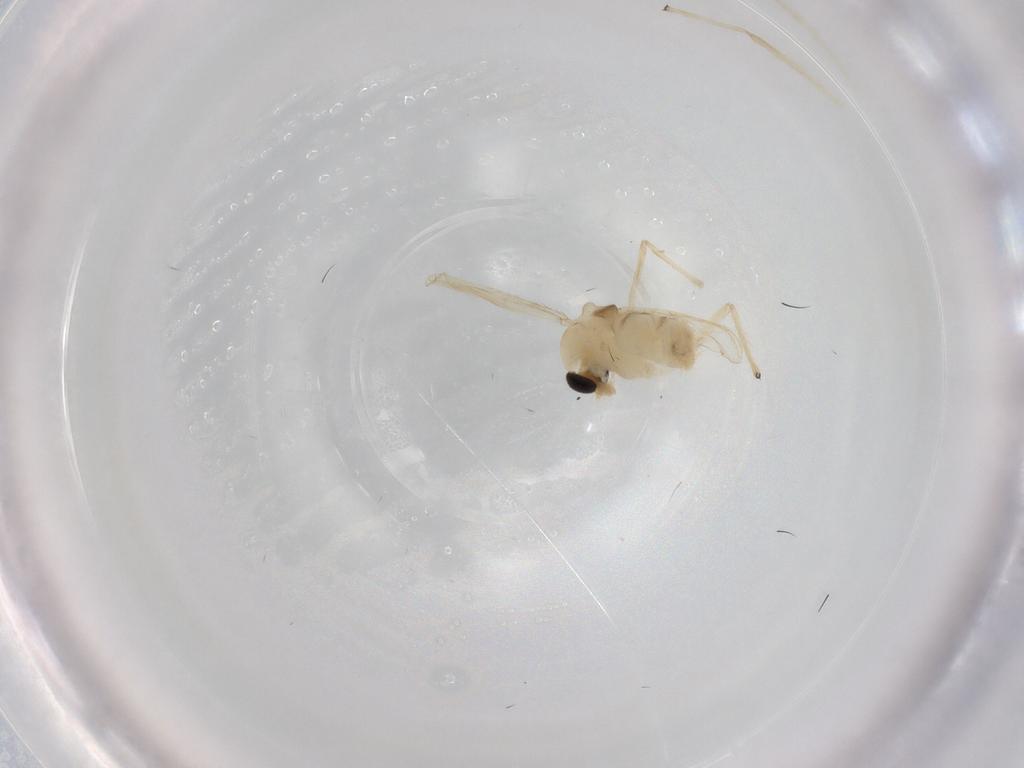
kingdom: Animalia
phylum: Arthropoda
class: Insecta
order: Diptera
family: Chironomidae
